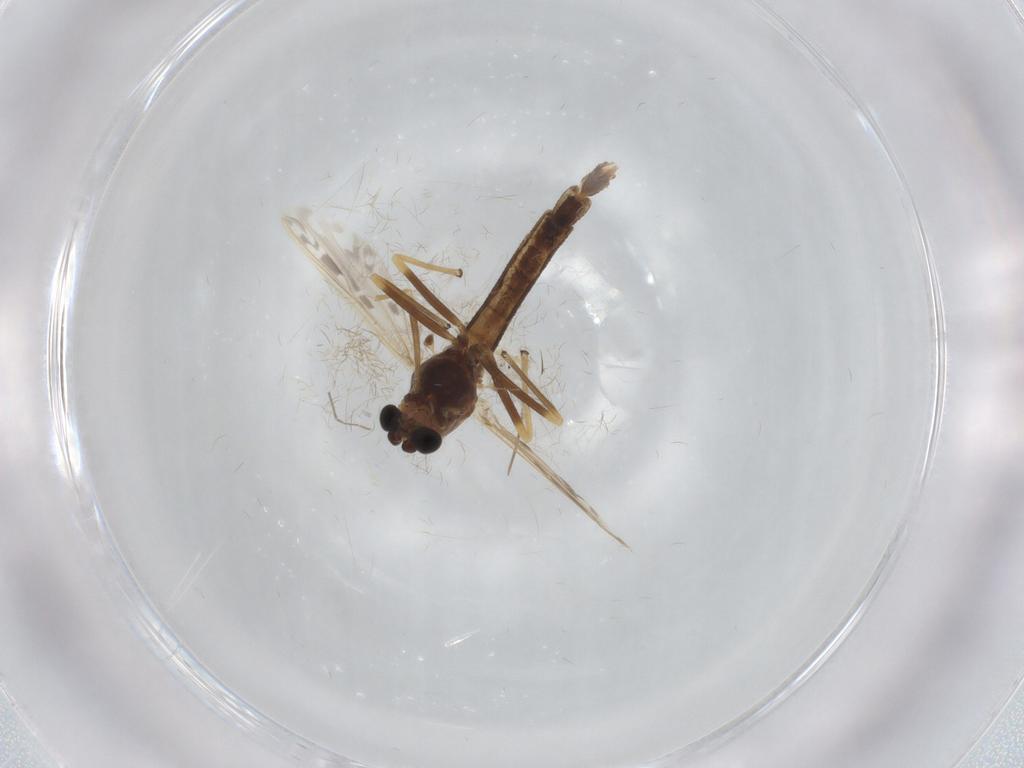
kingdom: Animalia
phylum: Arthropoda
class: Insecta
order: Diptera
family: Chironomidae
